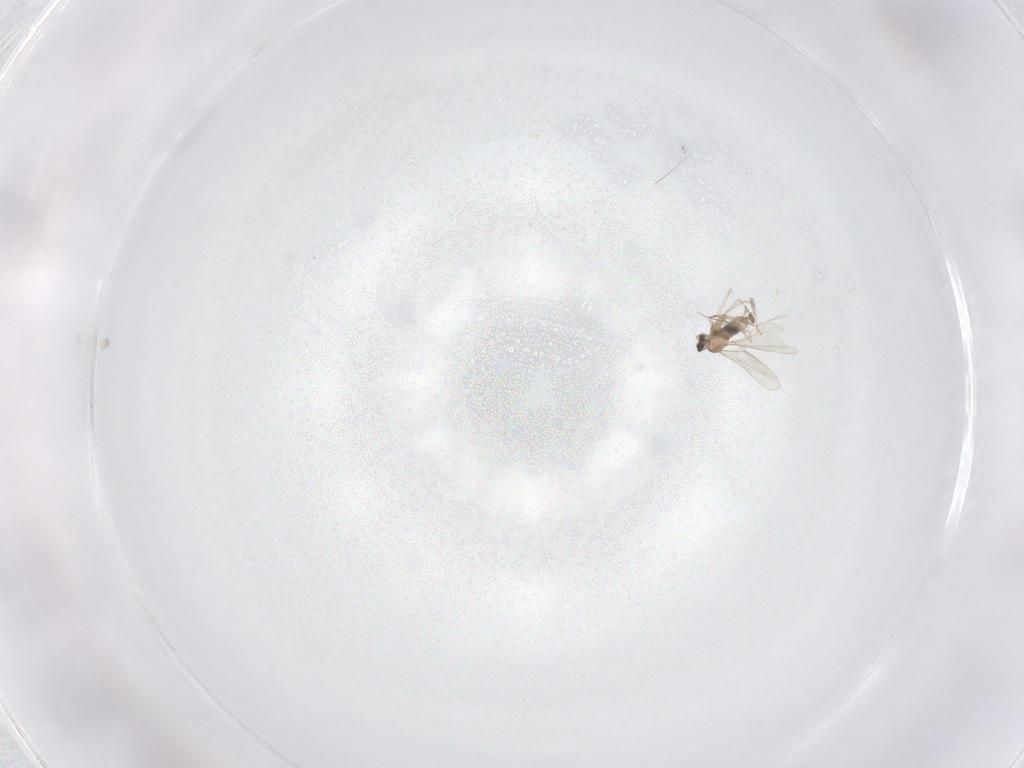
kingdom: Animalia
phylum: Arthropoda
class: Insecta
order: Diptera
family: Cecidomyiidae
